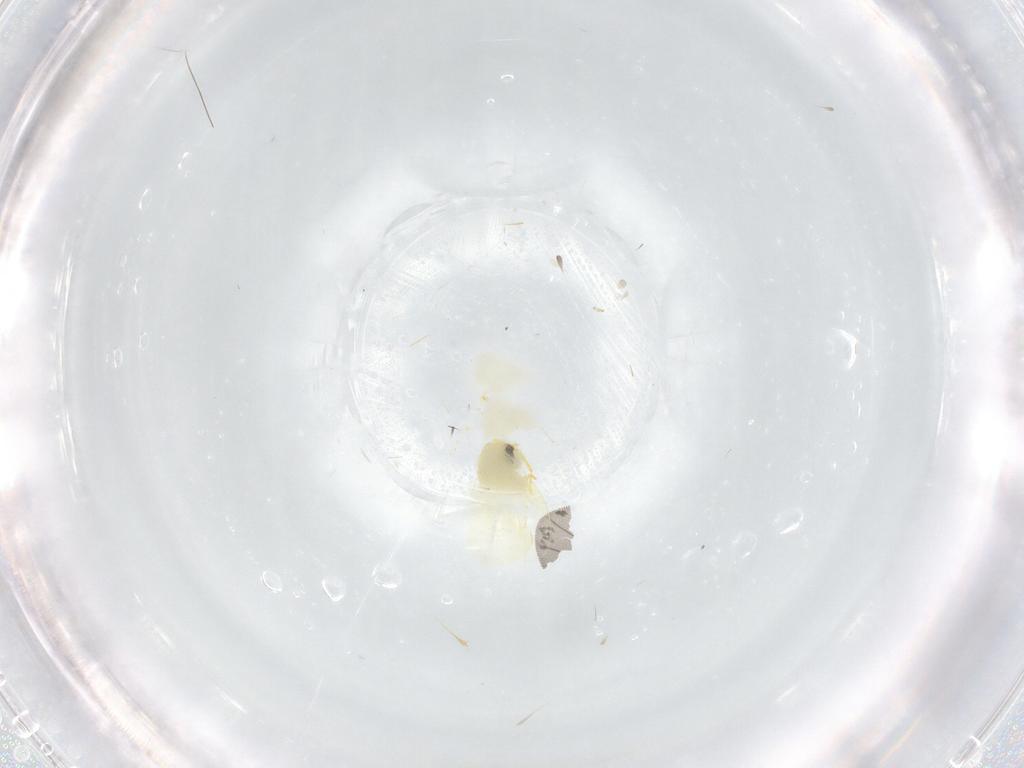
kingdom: Animalia
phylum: Arthropoda
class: Insecta
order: Hemiptera
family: Aleyrodidae
